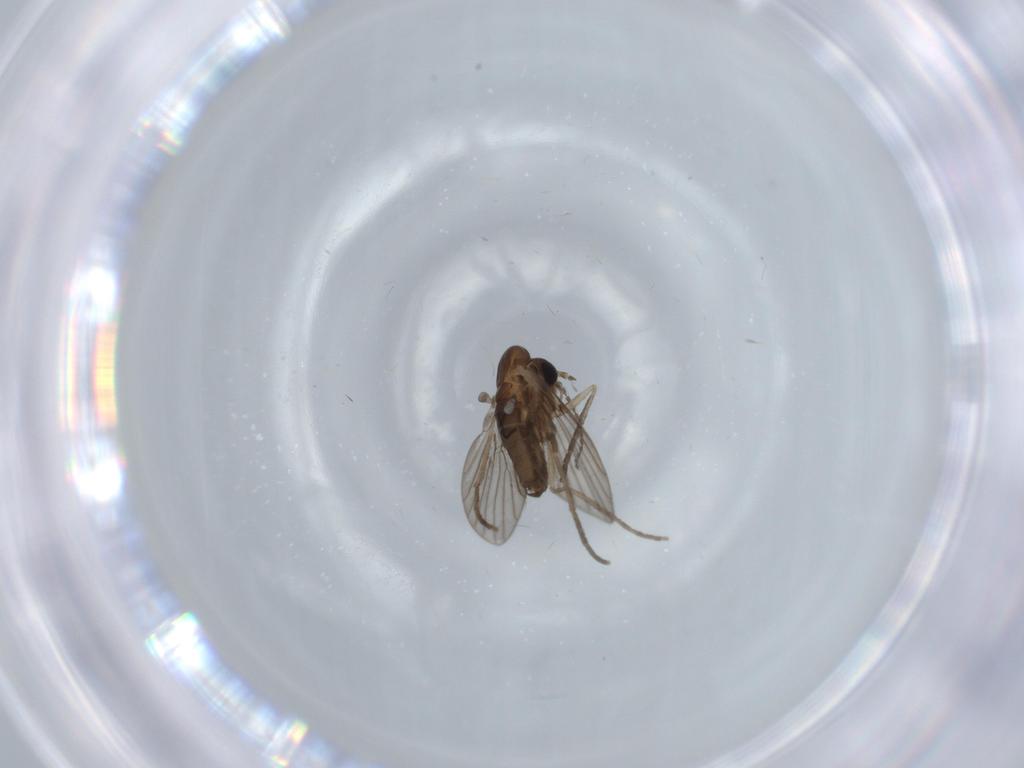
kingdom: Animalia
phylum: Arthropoda
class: Insecta
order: Diptera
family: Psychodidae
